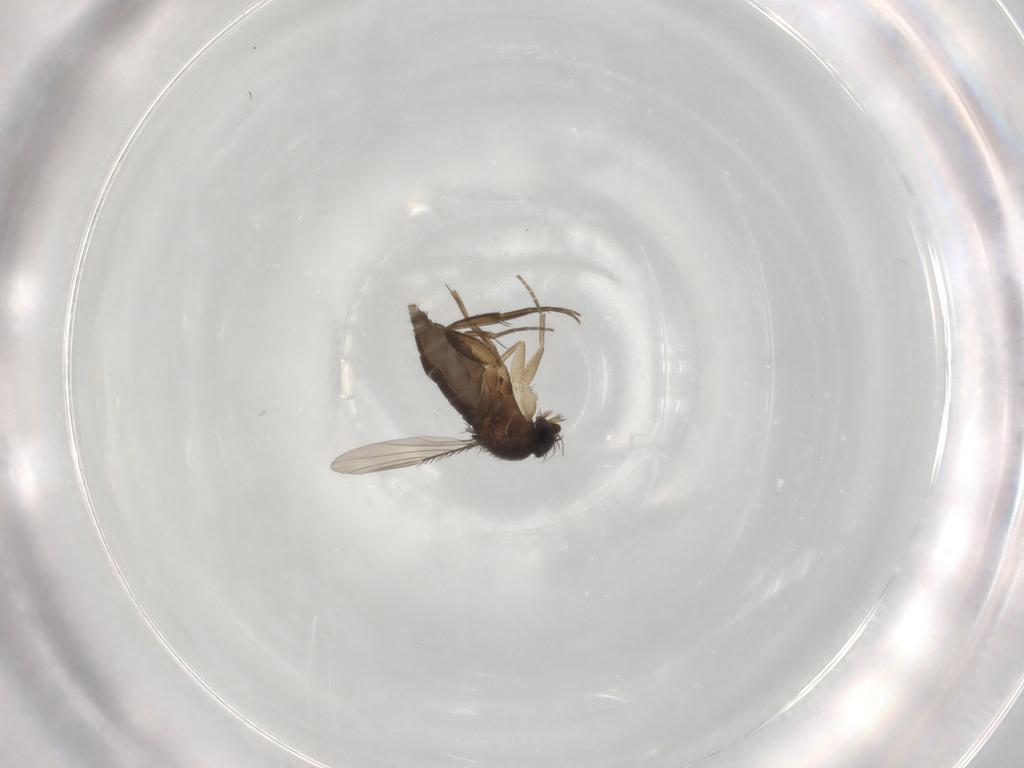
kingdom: Animalia
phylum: Arthropoda
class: Insecta
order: Diptera
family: Phoridae
